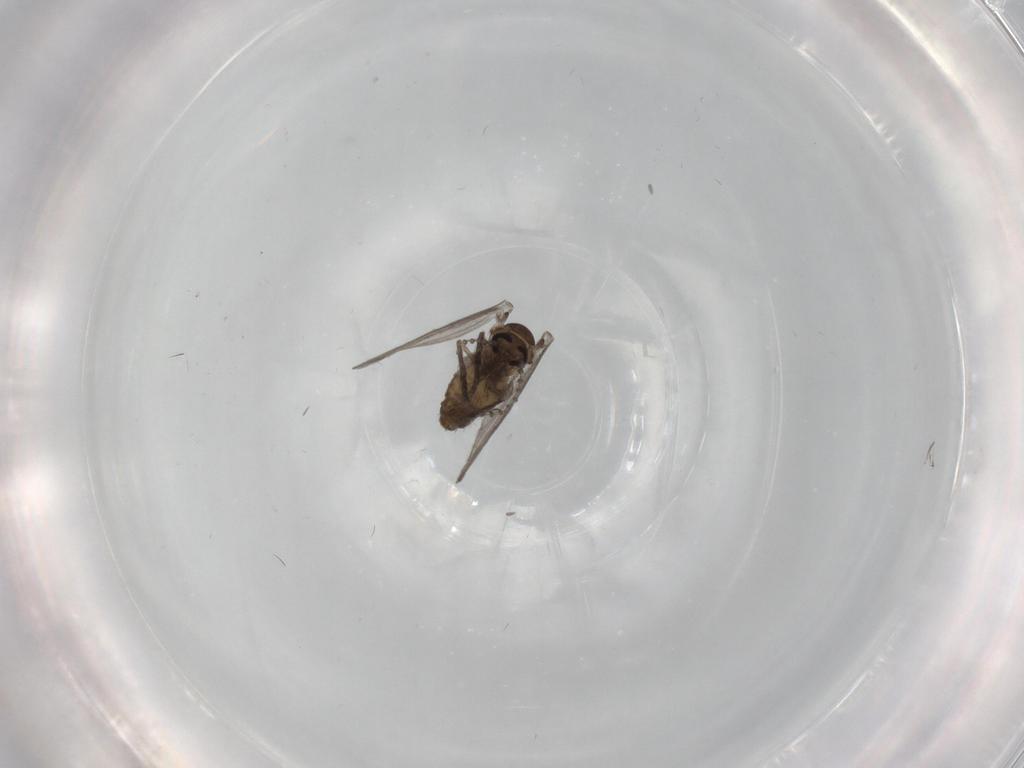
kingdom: Animalia
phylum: Arthropoda
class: Insecta
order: Diptera
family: Psychodidae
